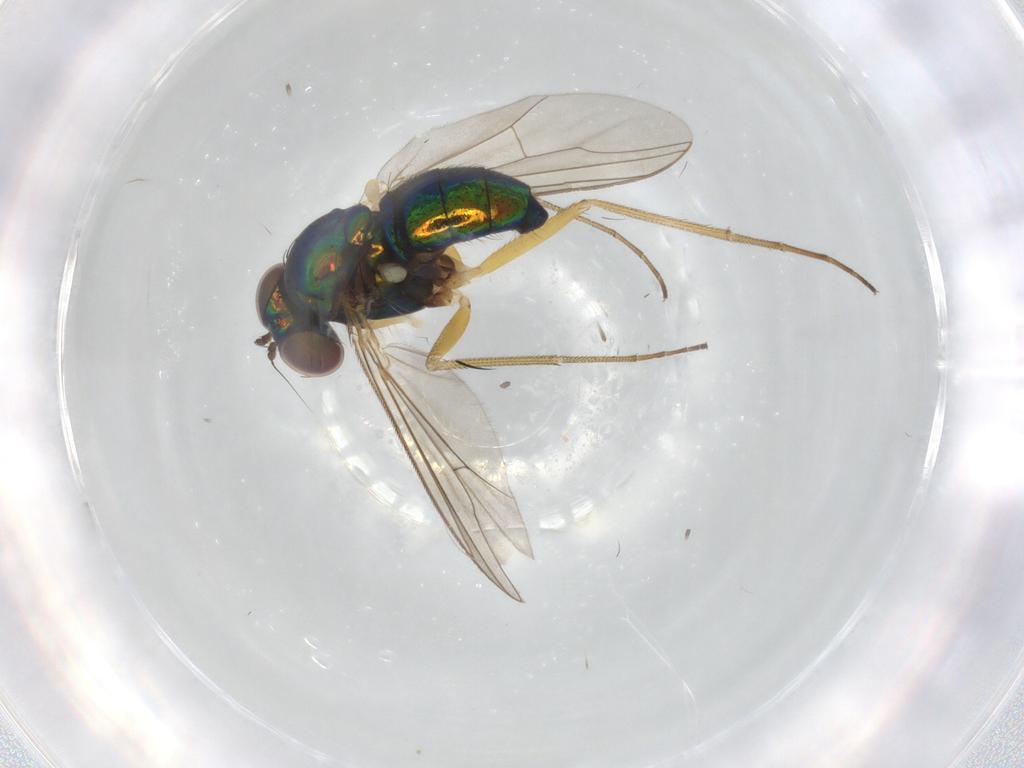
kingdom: Animalia
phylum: Arthropoda
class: Insecta
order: Diptera
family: Dolichopodidae
